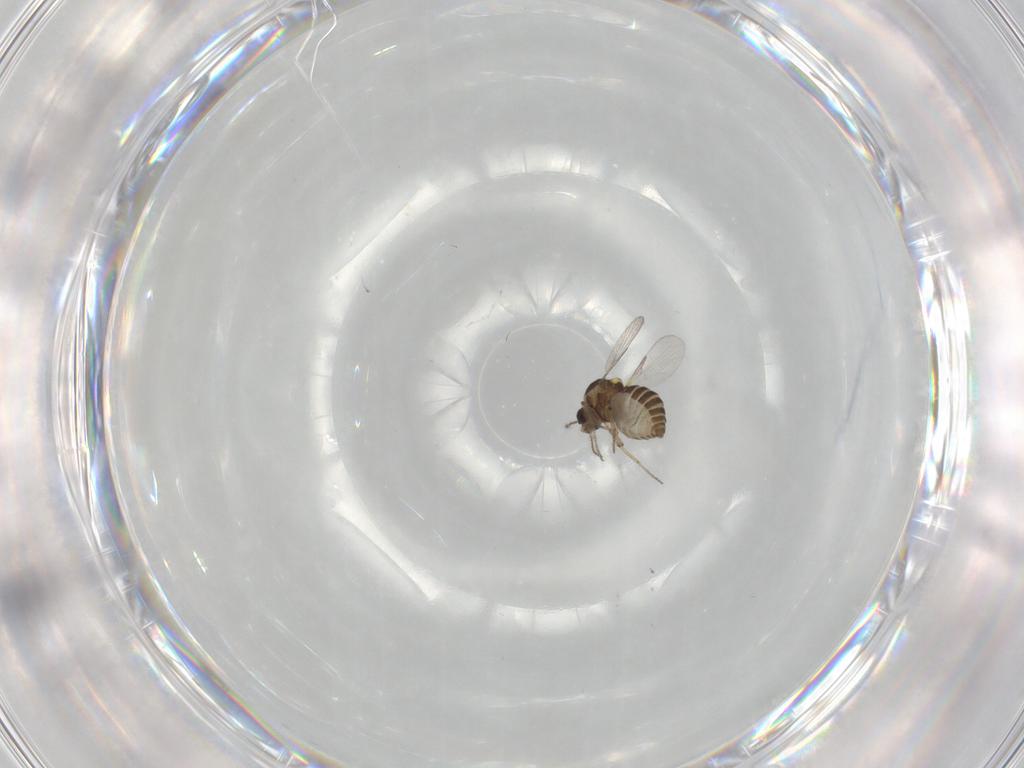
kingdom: Animalia
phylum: Arthropoda
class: Insecta
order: Diptera
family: Ceratopogonidae
